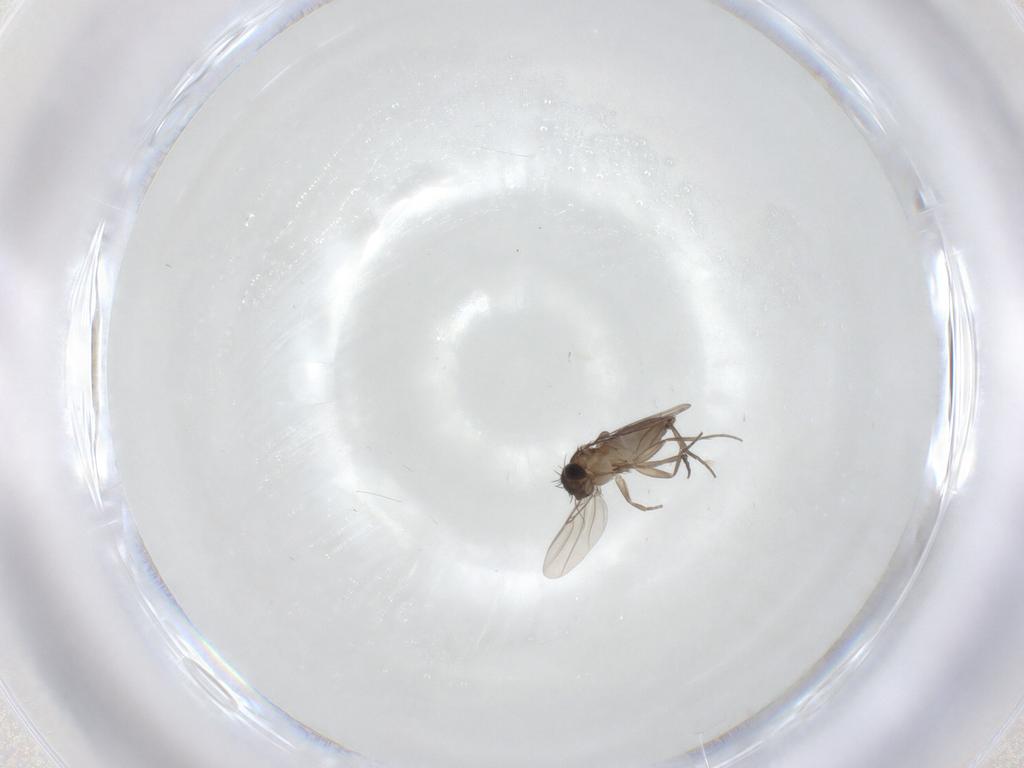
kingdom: Animalia
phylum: Arthropoda
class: Insecta
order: Diptera
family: Phoridae
